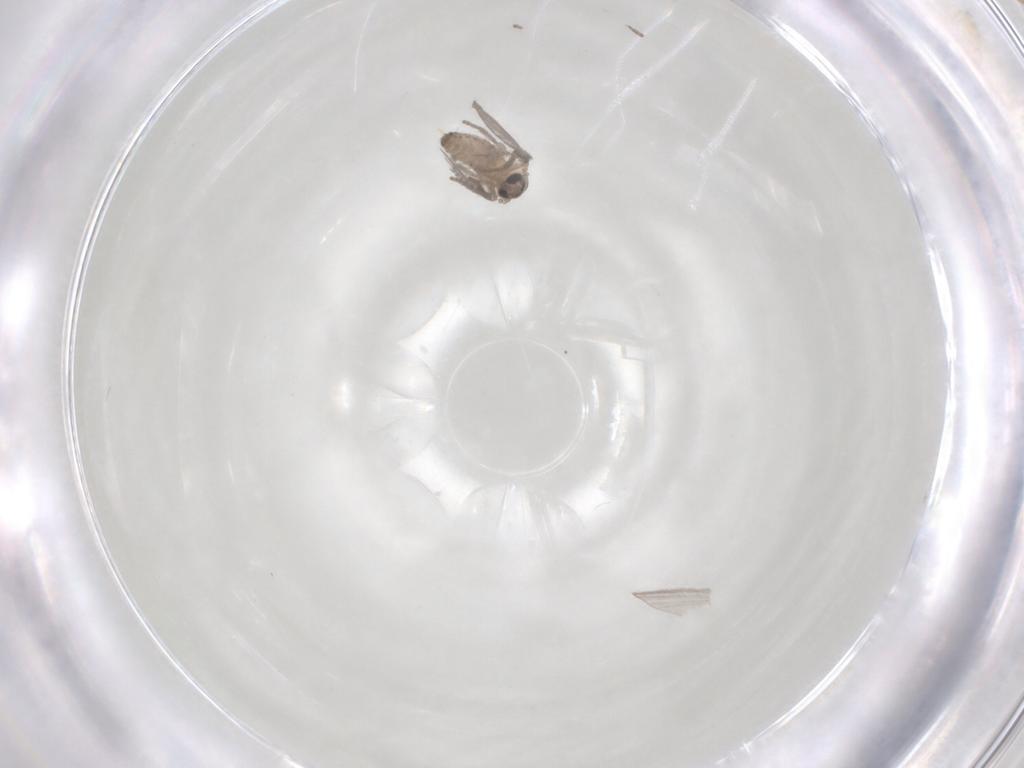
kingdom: Animalia
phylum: Arthropoda
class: Insecta
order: Diptera
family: Psychodidae
